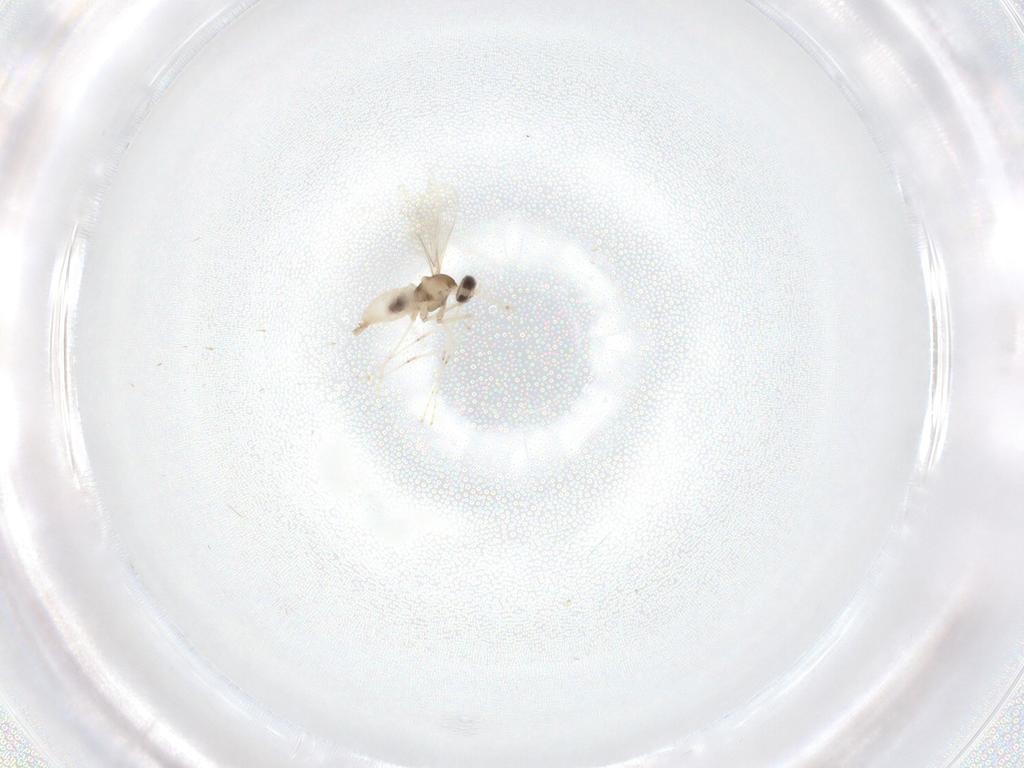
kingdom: Animalia
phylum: Arthropoda
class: Insecta
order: Diptera
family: Cecidomyiidae
